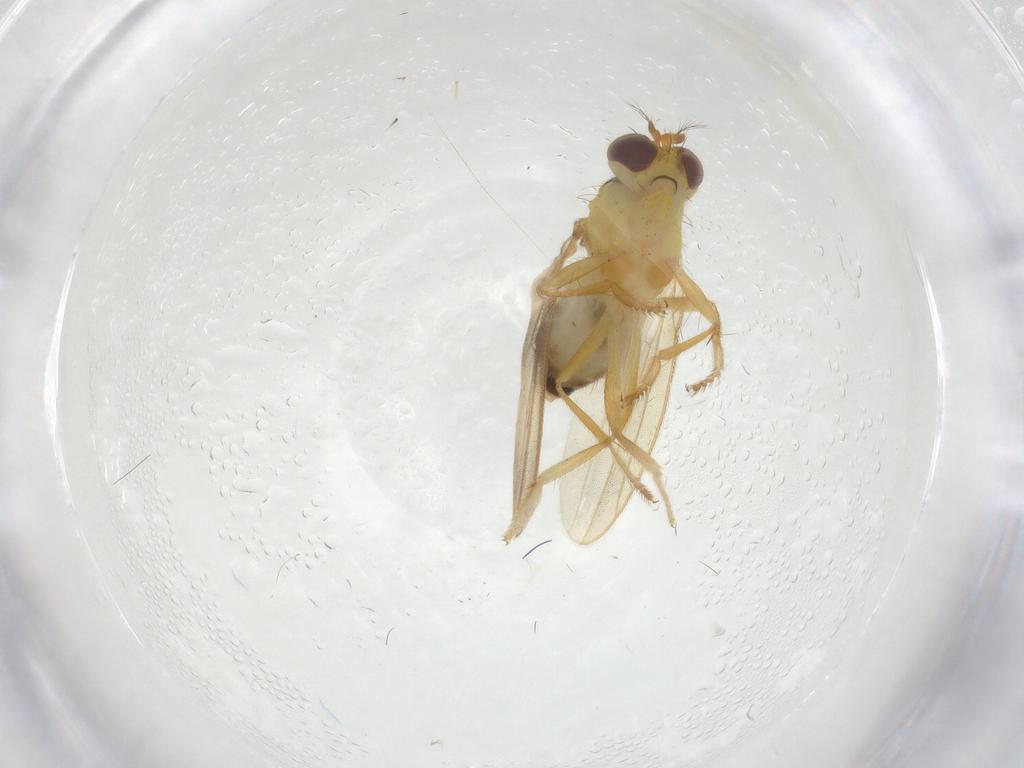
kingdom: Animalia
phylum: Arthropoda
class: Insecta
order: Diptera
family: Periscelididae
